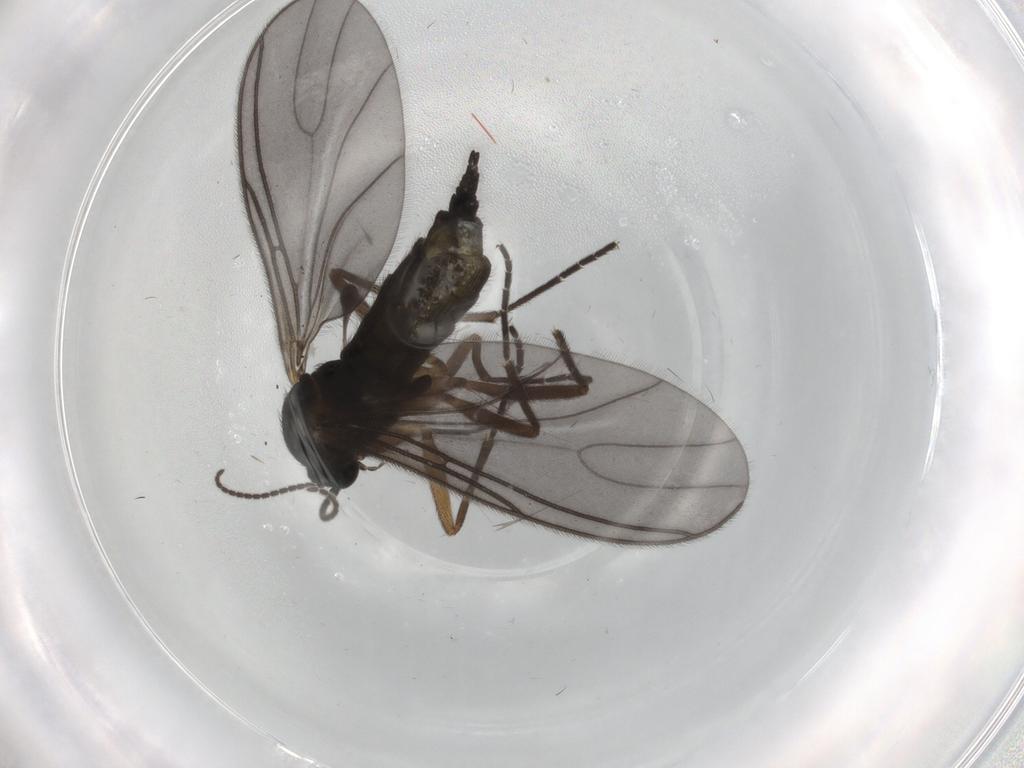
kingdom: Animalia
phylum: Arthropoda
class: Insecta
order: Diptera
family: Sciaridae
